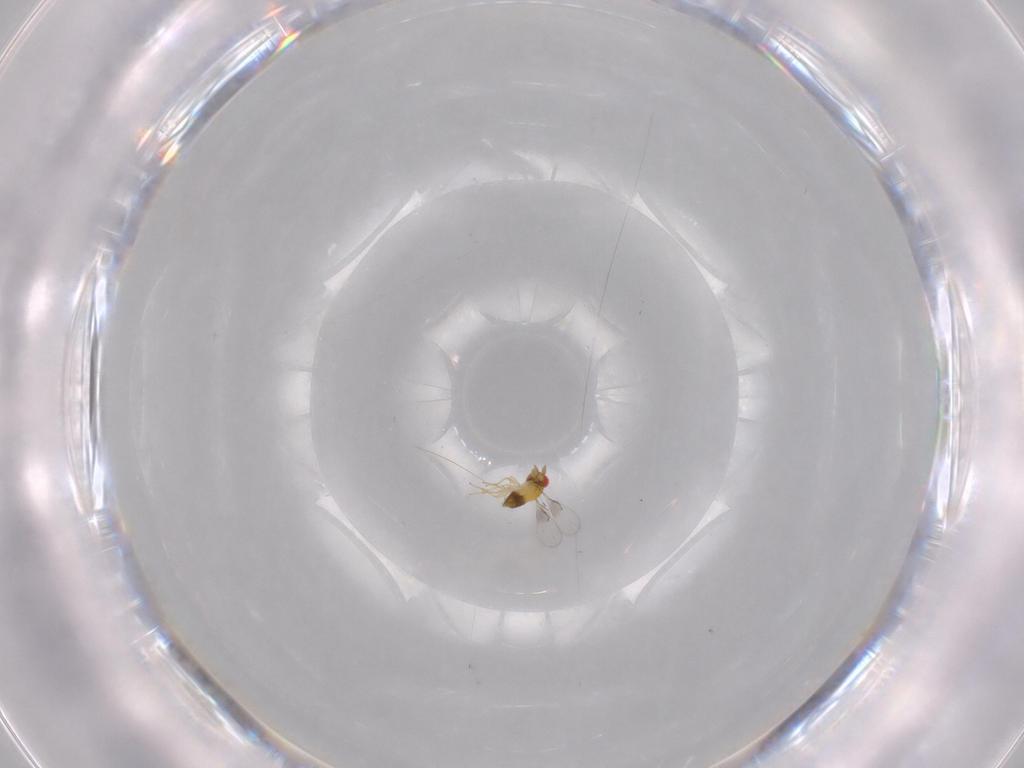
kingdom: Animalia
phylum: Arthropoda
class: Insecta
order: Hymenoptera
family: Trichogrammatidae
